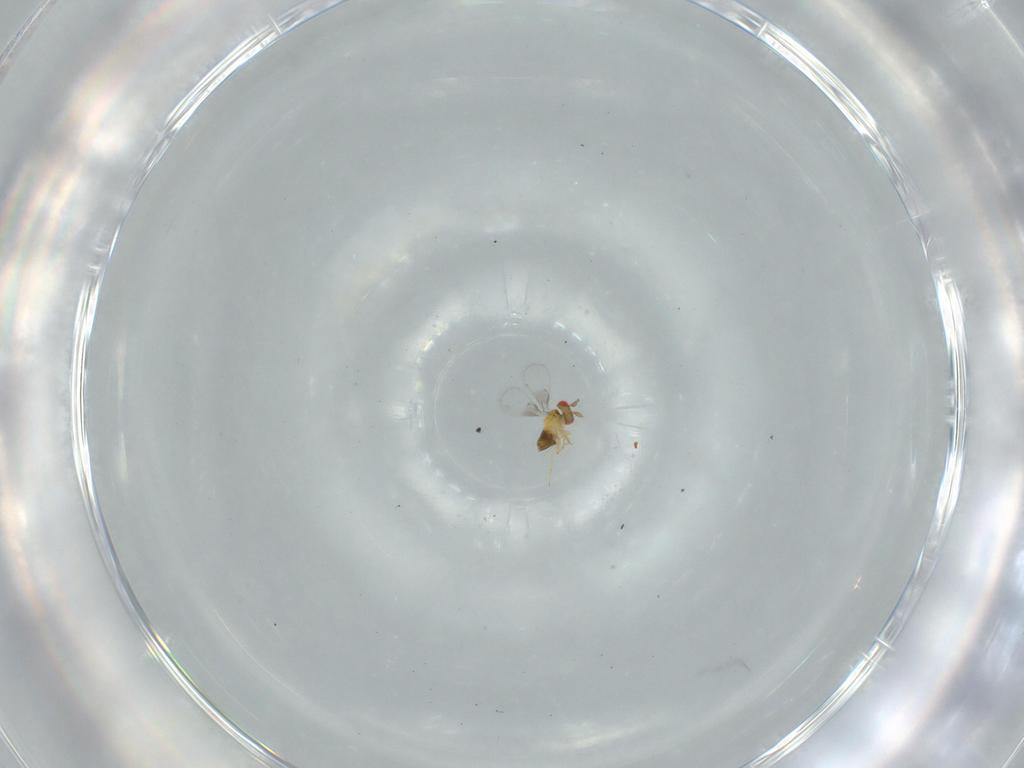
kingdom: Animalia
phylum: Arthropoda
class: Insecta
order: Hymenoptera
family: Trichogrammatidae
